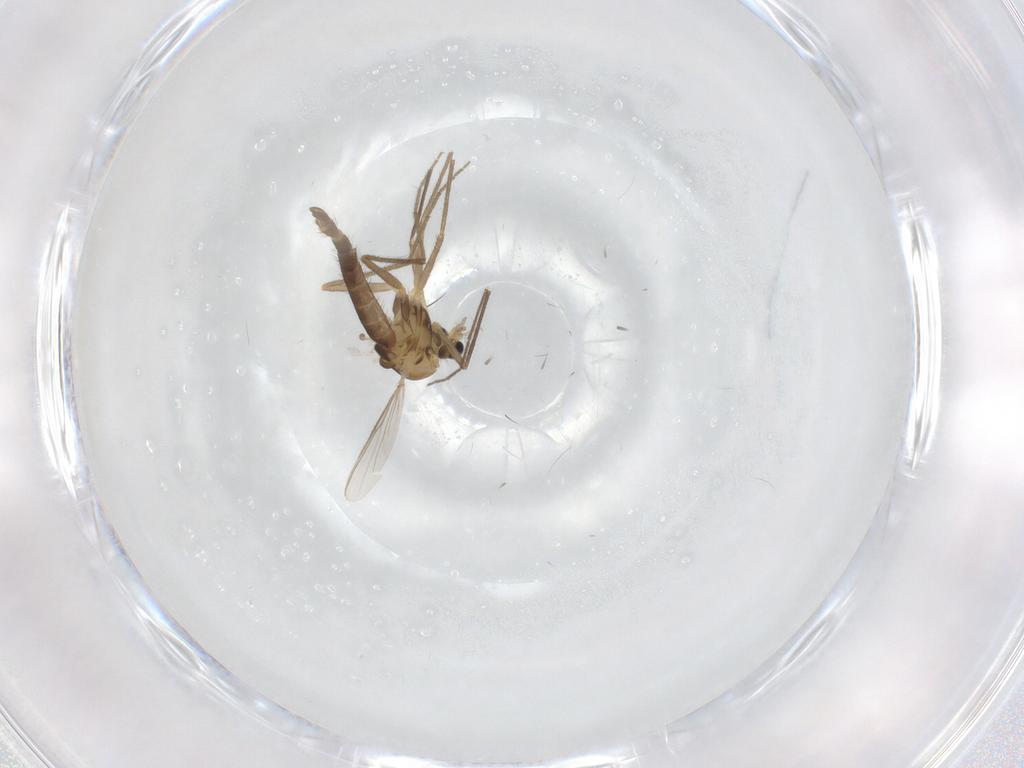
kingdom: Animalia
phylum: Arthropoda
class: Insecta
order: Diptera
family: Chironomidae
